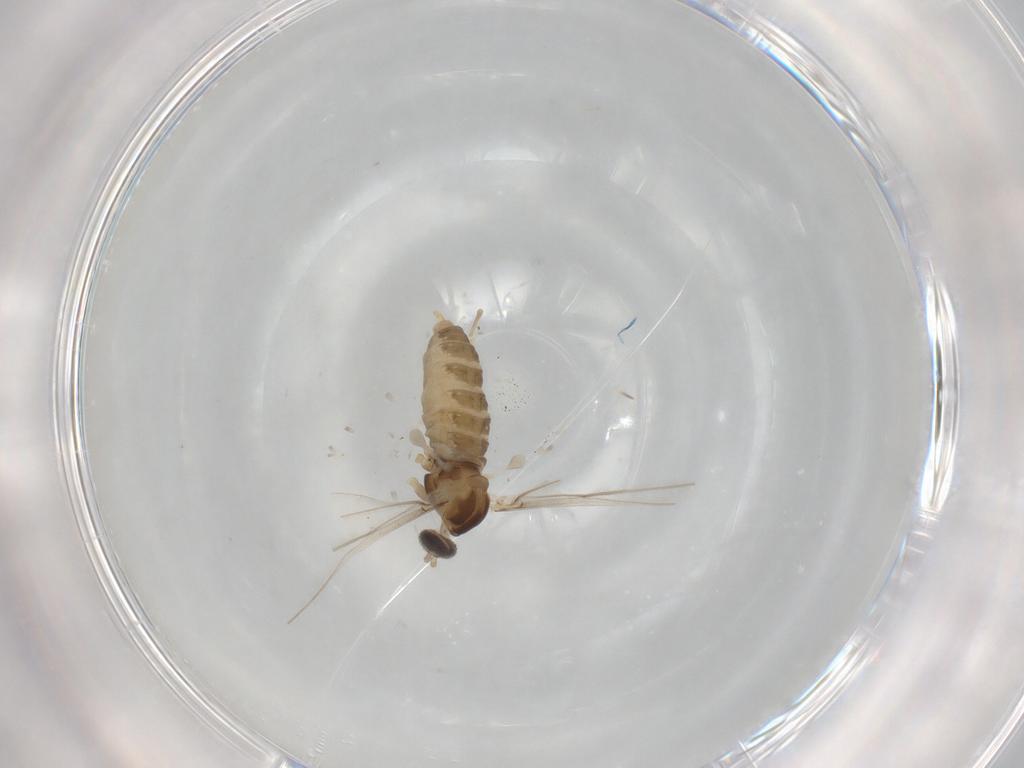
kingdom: Animalia
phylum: Arthropoda
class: Insecta
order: Diptera
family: Cecidomyiidae
